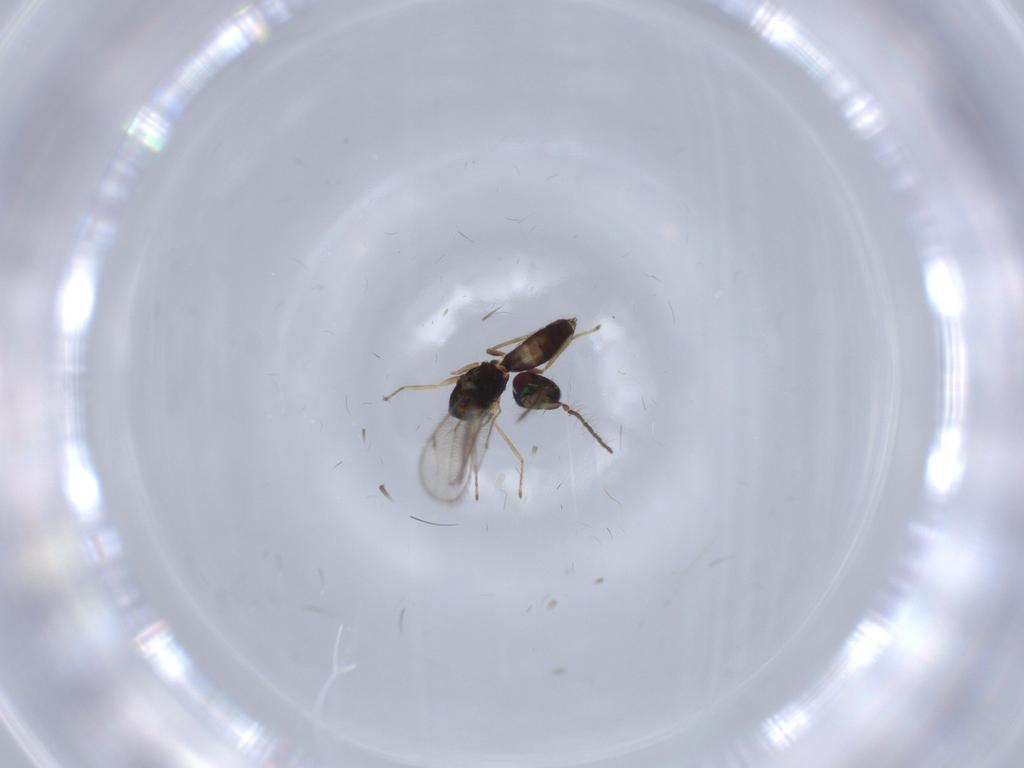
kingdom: Animalia
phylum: Arthropoda
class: Insecta
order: Hymenoptera
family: Eulophidae
